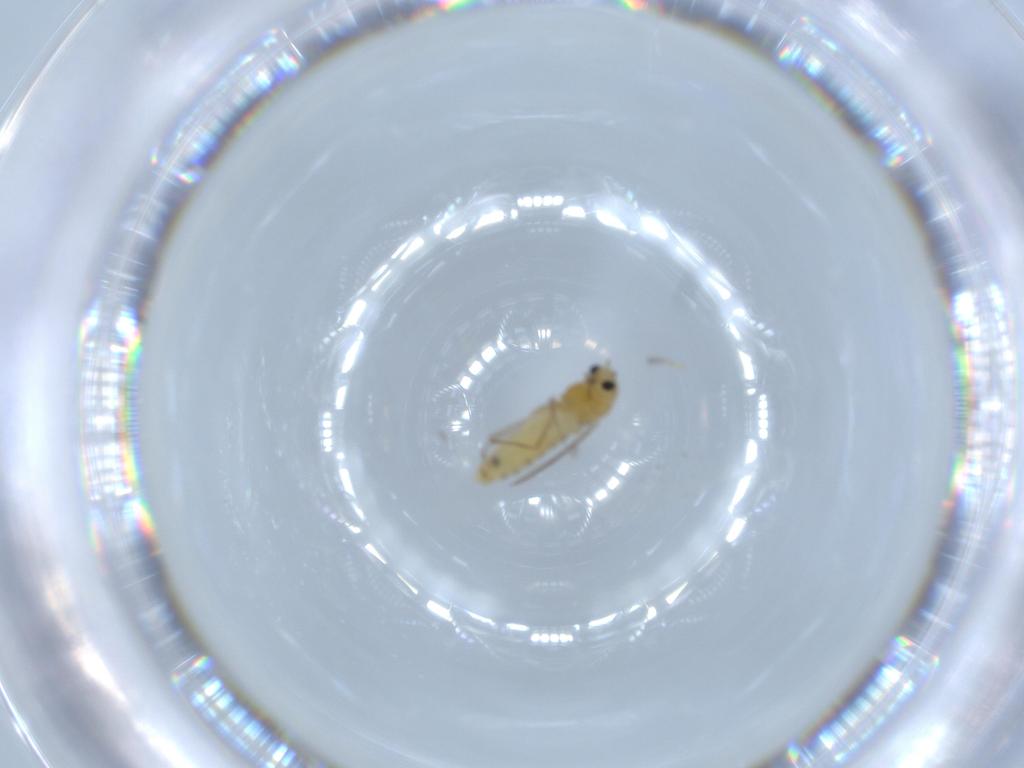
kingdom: Animalia
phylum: Arthropoda
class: Insecta
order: Diptera
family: Chironomidae
